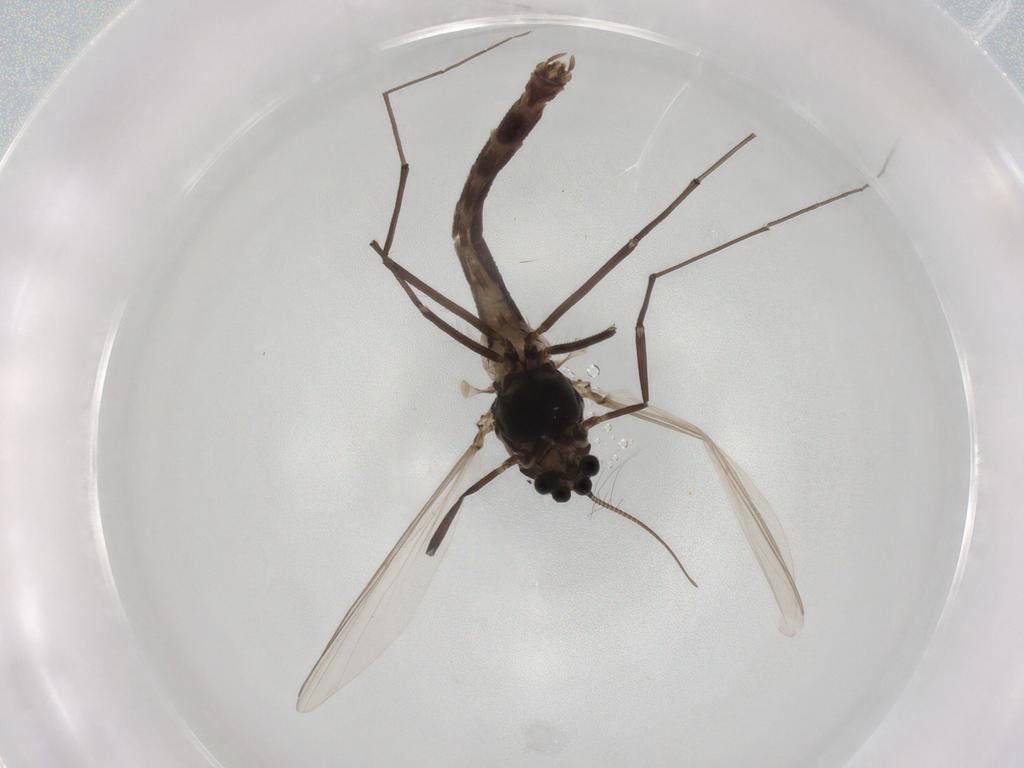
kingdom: Animalia
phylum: Arthropoda
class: Insecta
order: Diptera
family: Chironomidae
